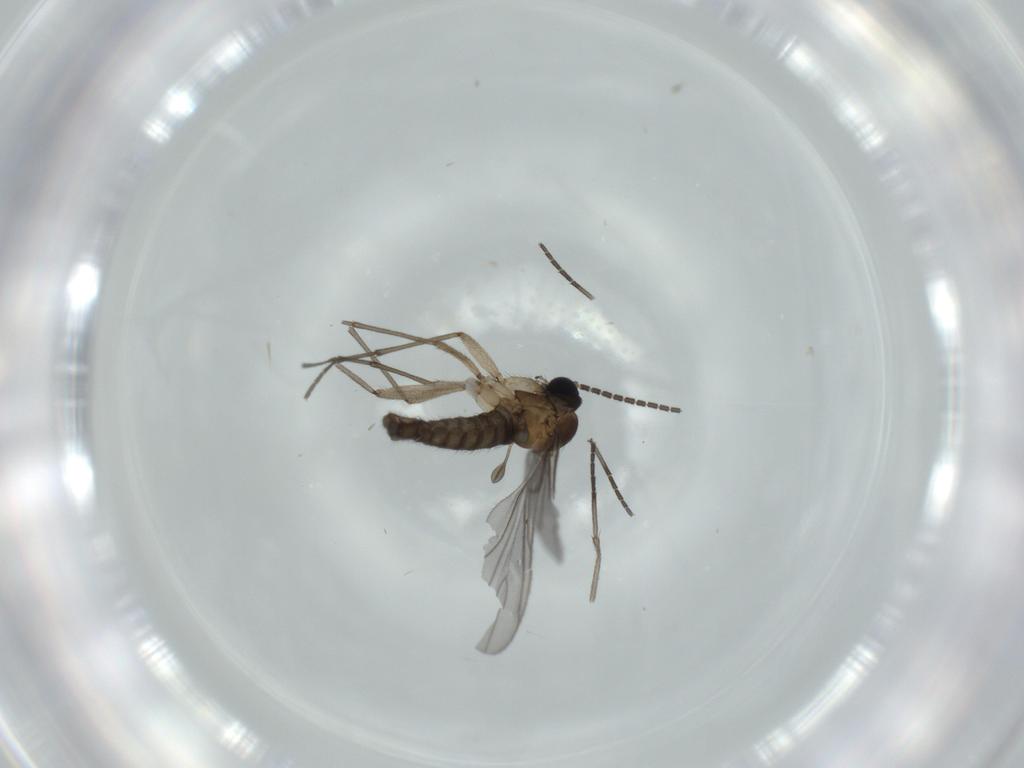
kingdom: Animalia
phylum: Arthropoda
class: Insecta
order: Diptera
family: Sciaridae
